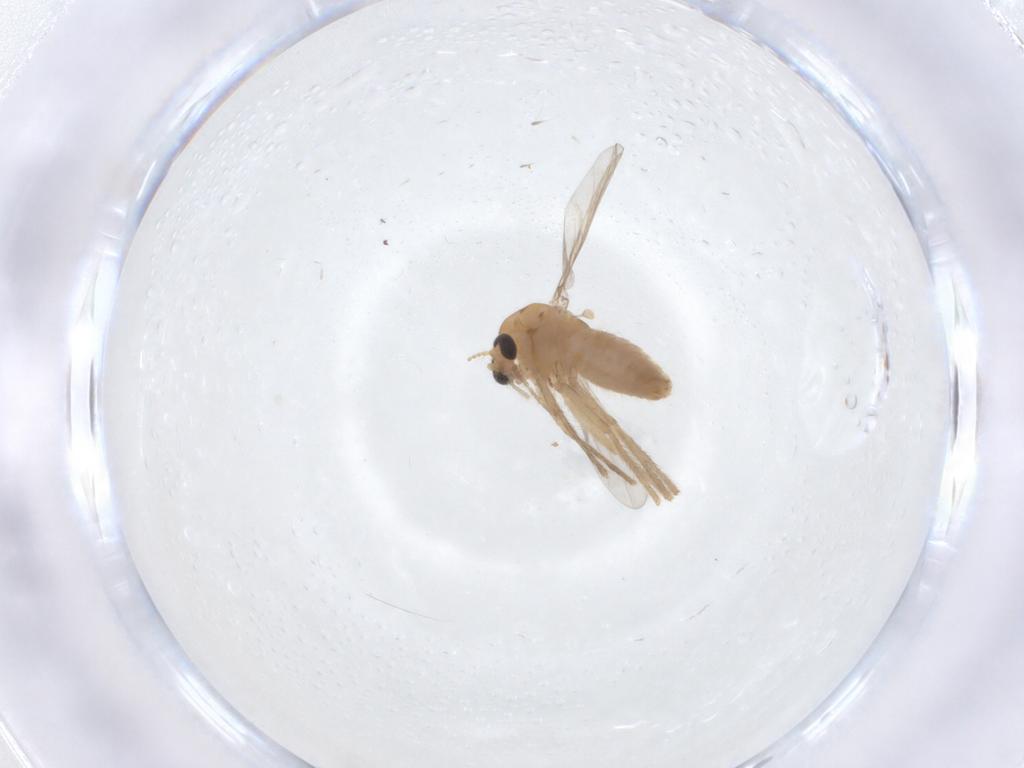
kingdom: Animalia
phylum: Arthropoda
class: Insecta
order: Diptera
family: Chironomidae
